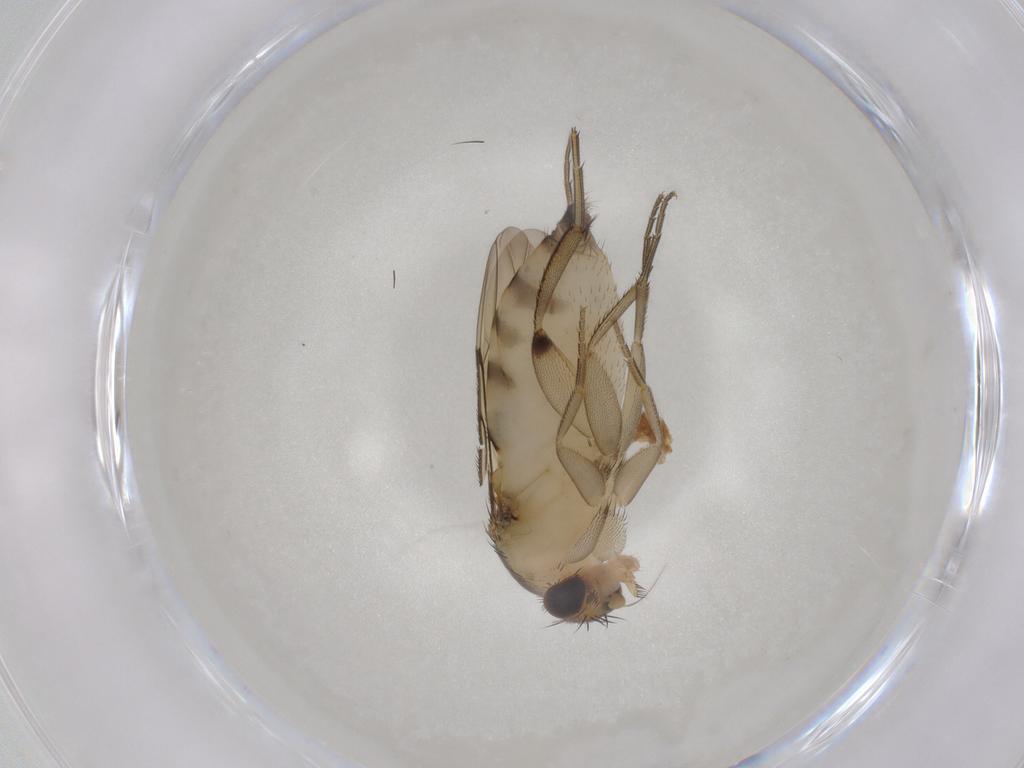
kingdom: Animalia
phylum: Arthropoda
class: Insecta
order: Diptera
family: Phoridae
